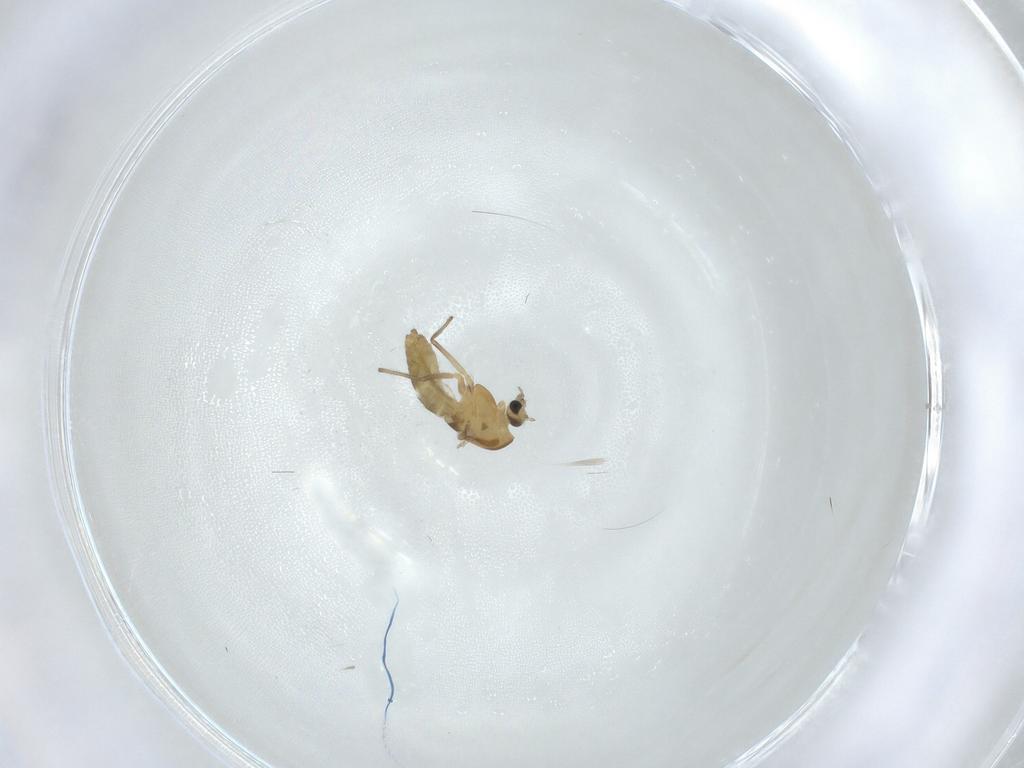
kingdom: Animalia
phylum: Arthropoda
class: Insecta
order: Diptera
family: Chironomidae
